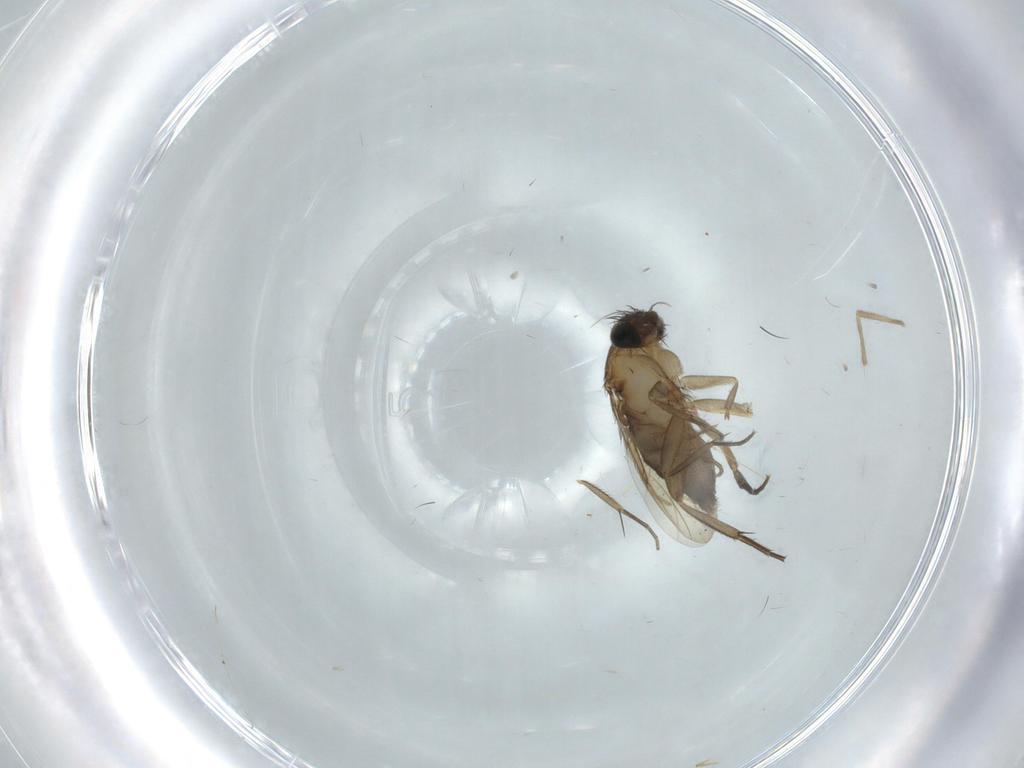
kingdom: Animalia
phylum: Arthropoda
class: Insecta
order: Diptera
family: Phoridae
